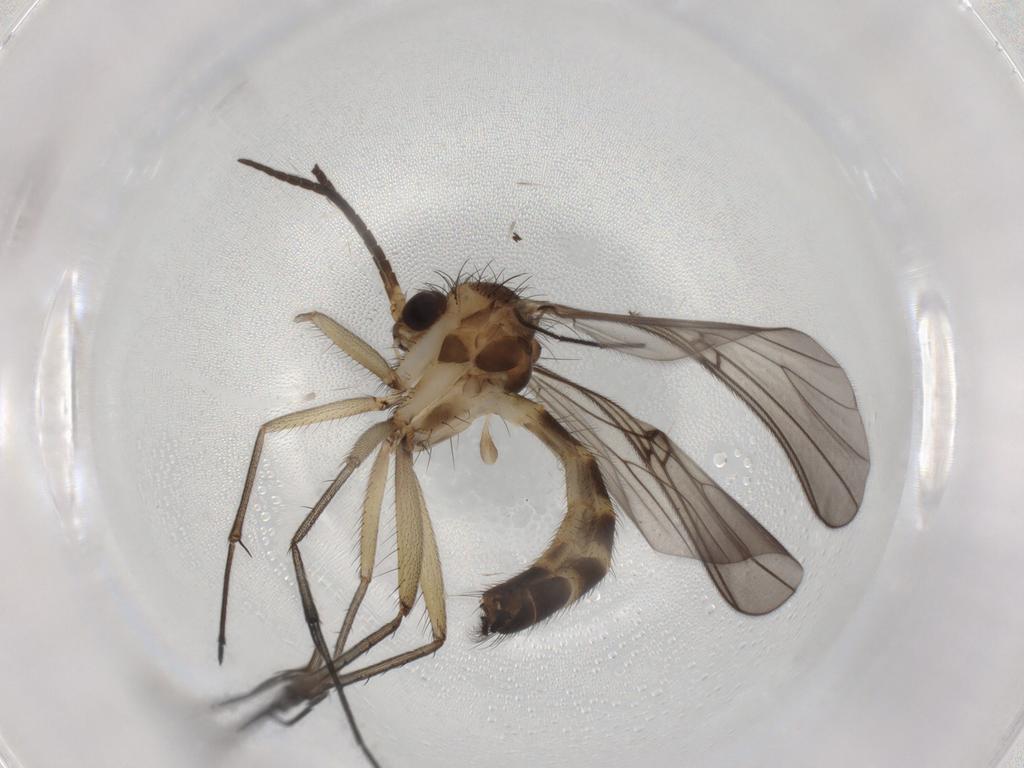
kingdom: Animalia
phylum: Arthropoda
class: Insecta
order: Diptera
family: Phoridae
